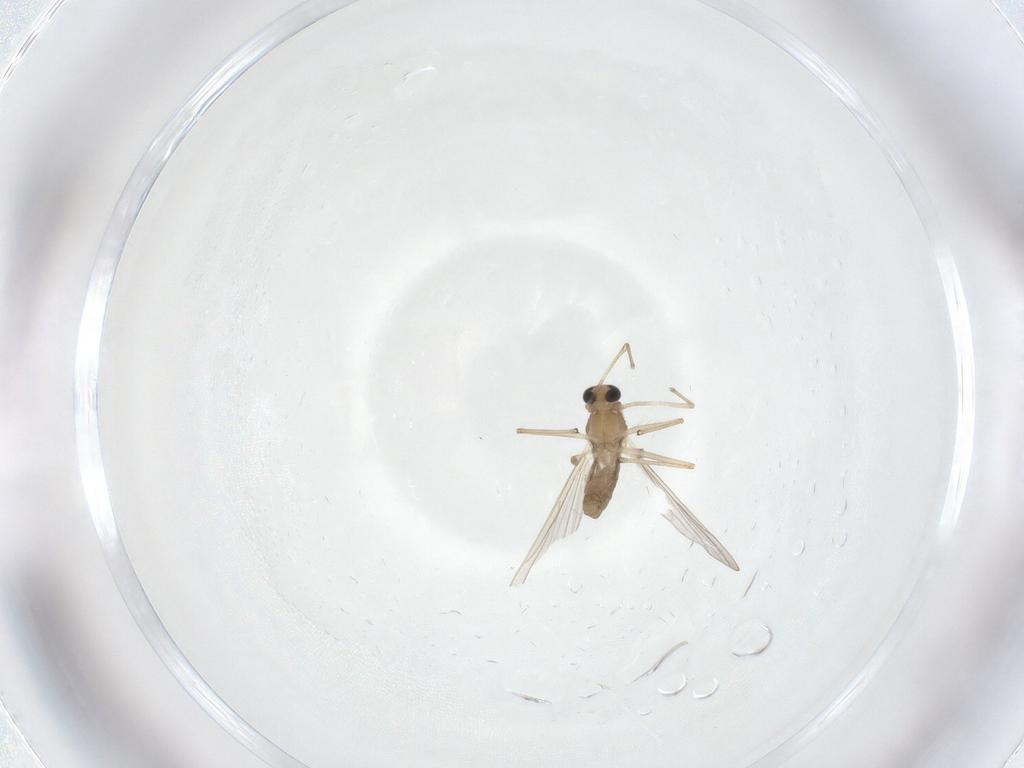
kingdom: Animalia
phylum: Arthropoda
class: Insecta
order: Diptera
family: Chironomidae
